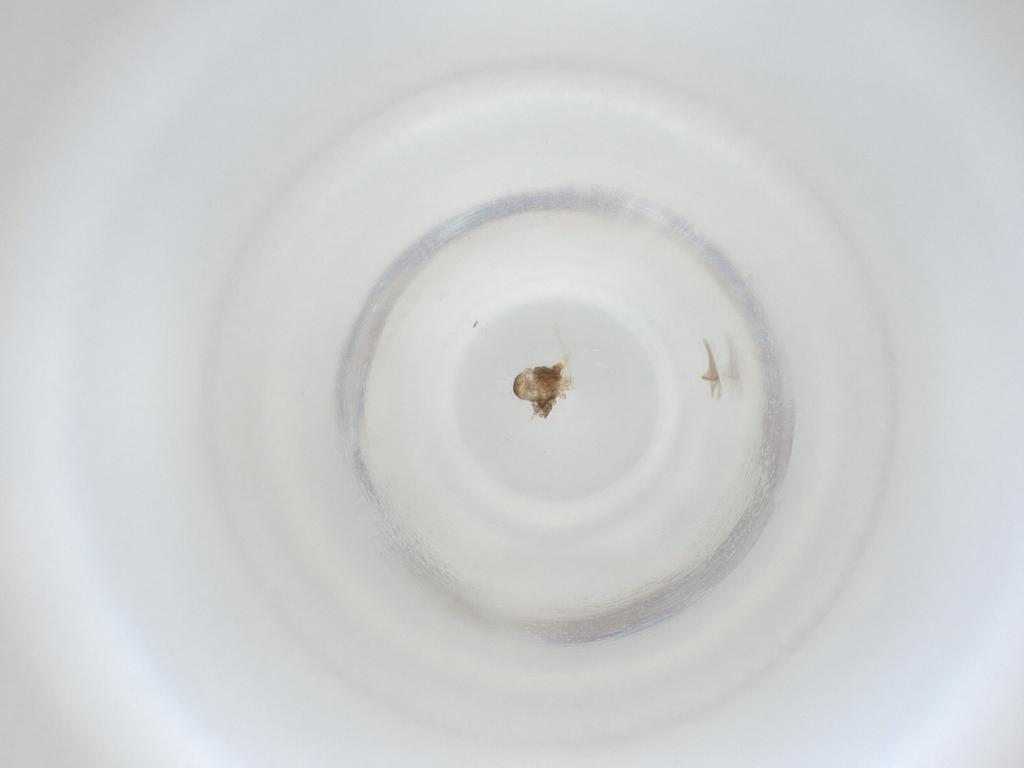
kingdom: Animalia
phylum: Arthropoda
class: Insecta
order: Diptera
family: Cecidomyiidae
